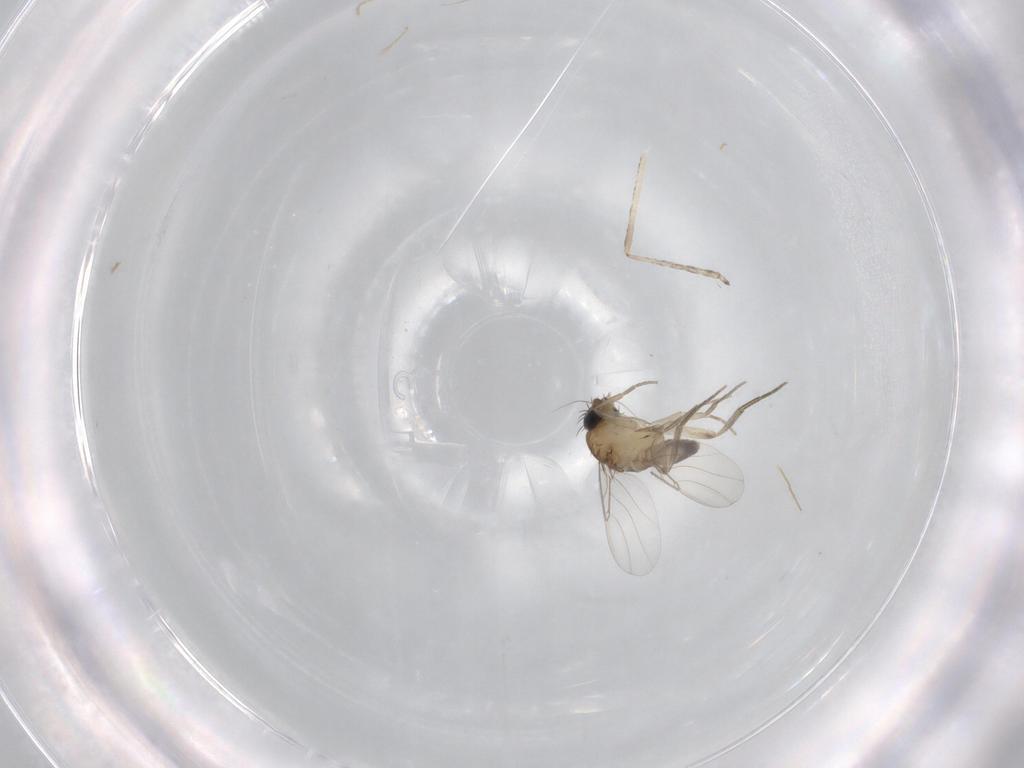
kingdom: Animalia
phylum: Arthropoda
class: Insecta
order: Diptera
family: Phoridae
